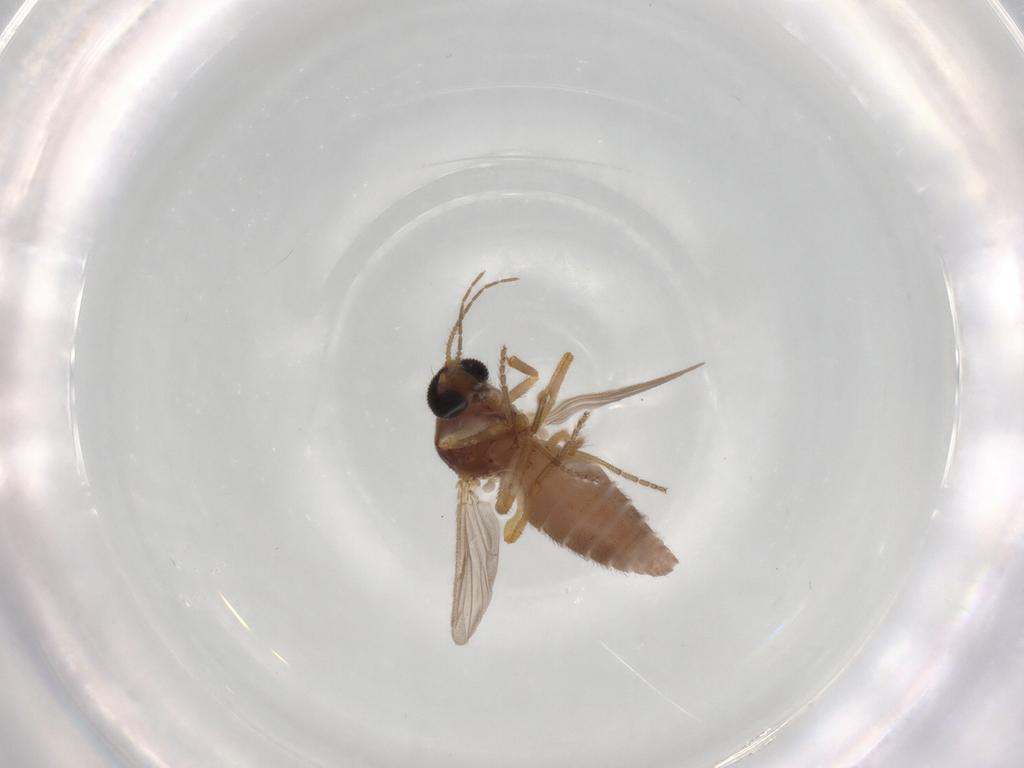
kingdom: Animalia
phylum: Arthropoda
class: Insecta
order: Diptera
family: Ceratopogonidae
